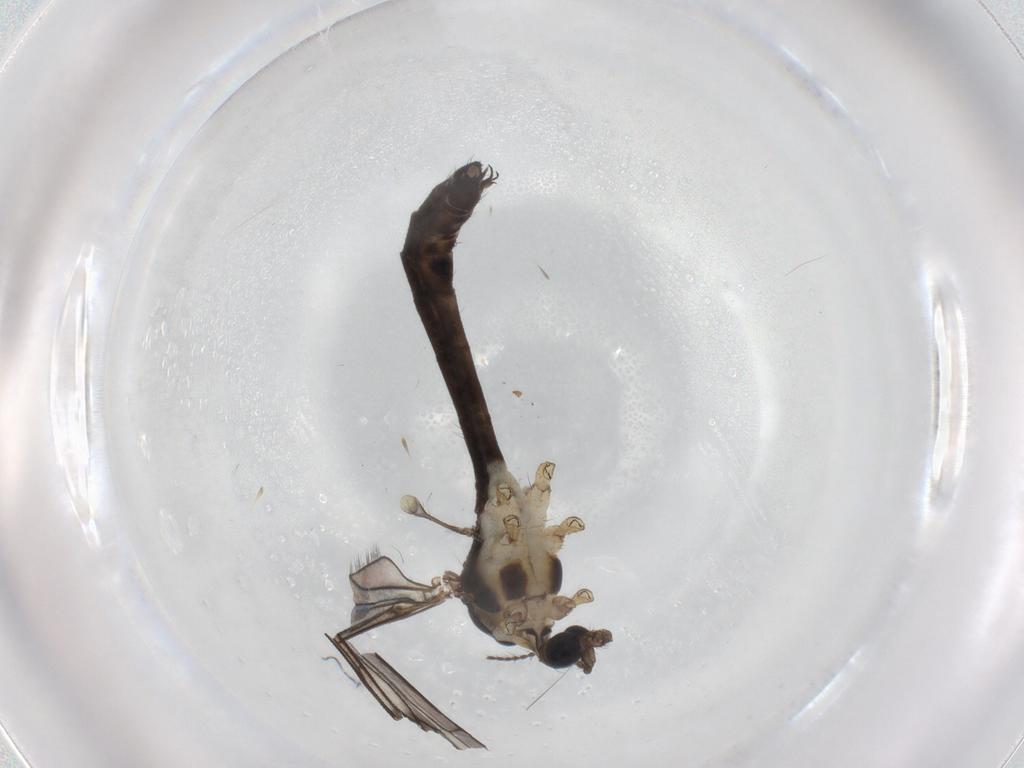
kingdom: Animalia
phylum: Arthropoda
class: Insecta
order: Diptera
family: Limoniidae
